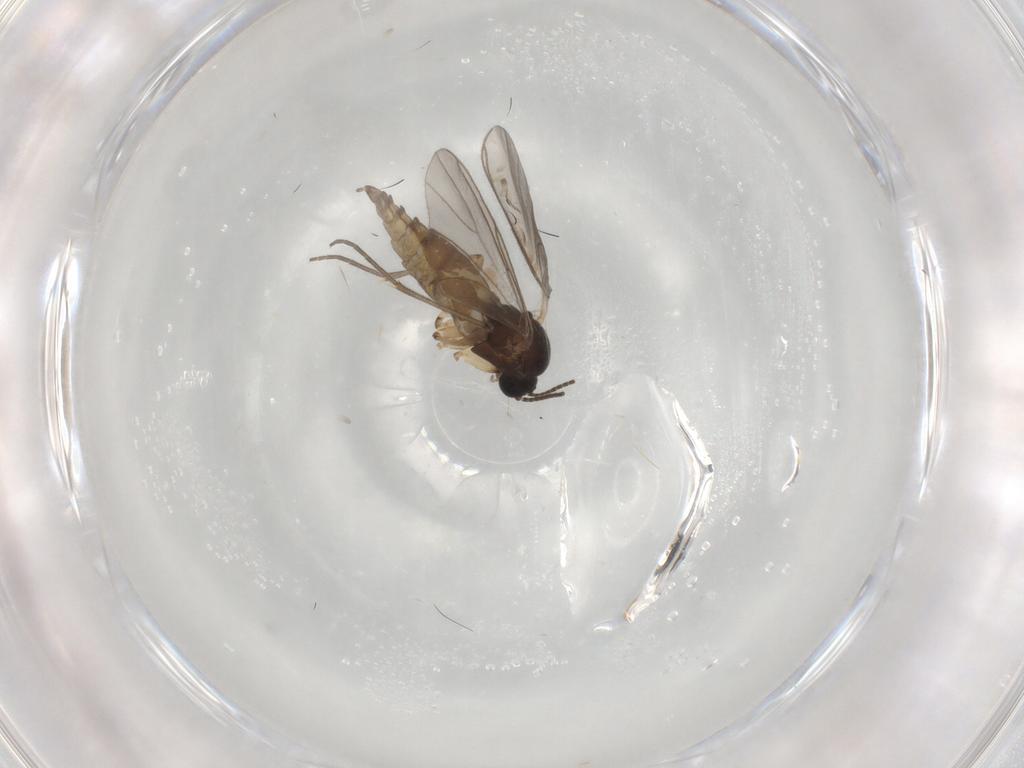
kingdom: Animalia
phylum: Arthropoda
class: Insecta
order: Diptera
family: Sciaridae
